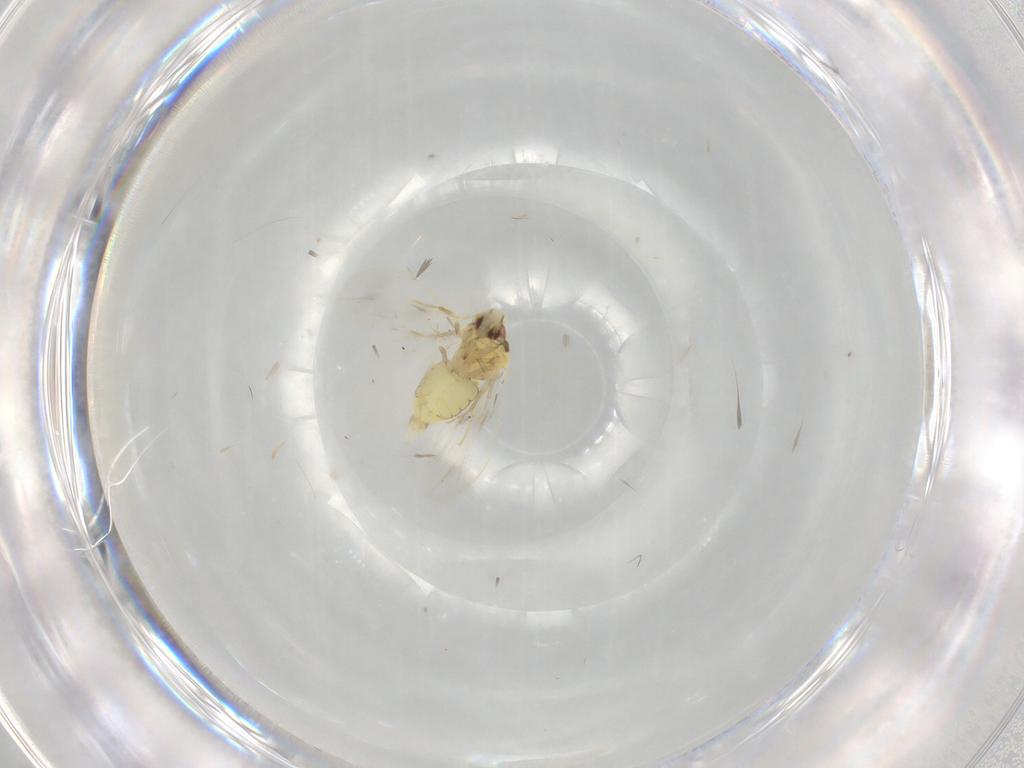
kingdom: Animalia
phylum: Arthropoda
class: Insecta
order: Hemiptera
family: Aleyrodidae
